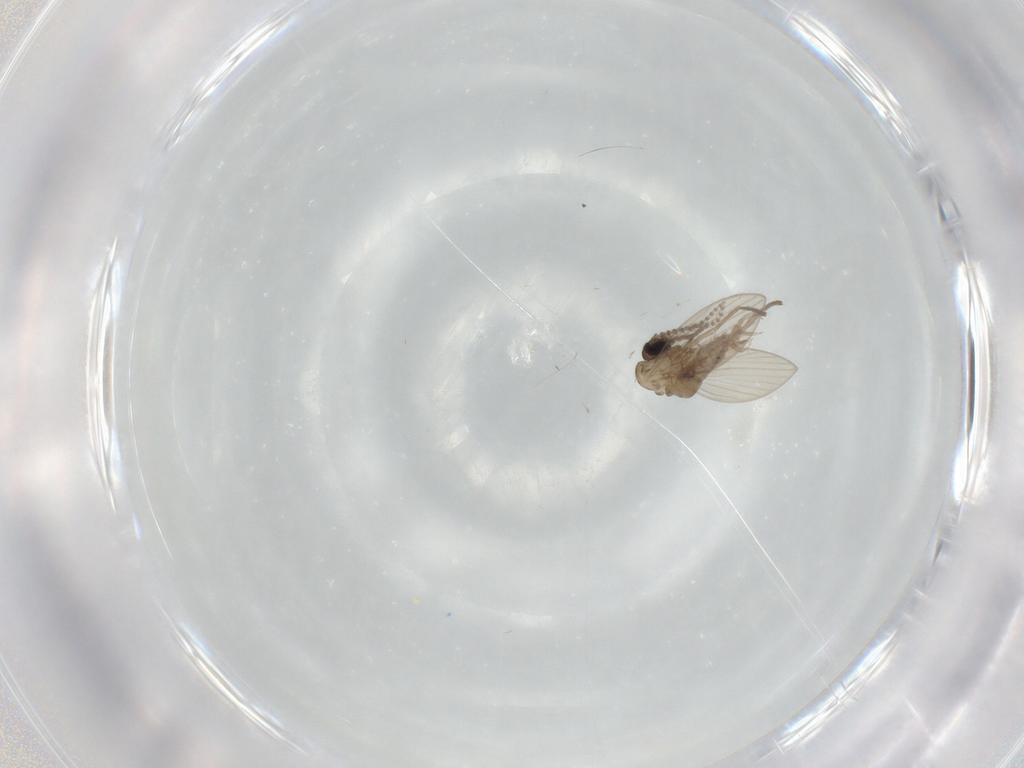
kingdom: Animalia
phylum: Arthropoda
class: Insecta
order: Diptera
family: Psychodidae
